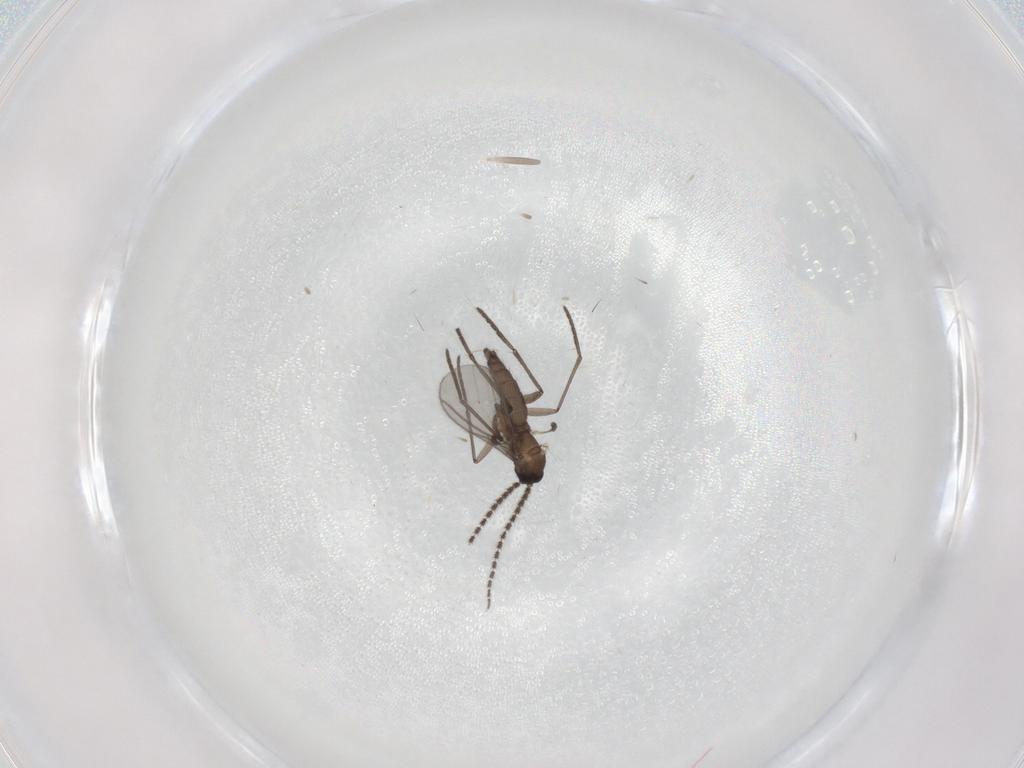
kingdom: Animalia
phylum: Arthropoda
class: Insecta
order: Diptera
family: Chironomidae
